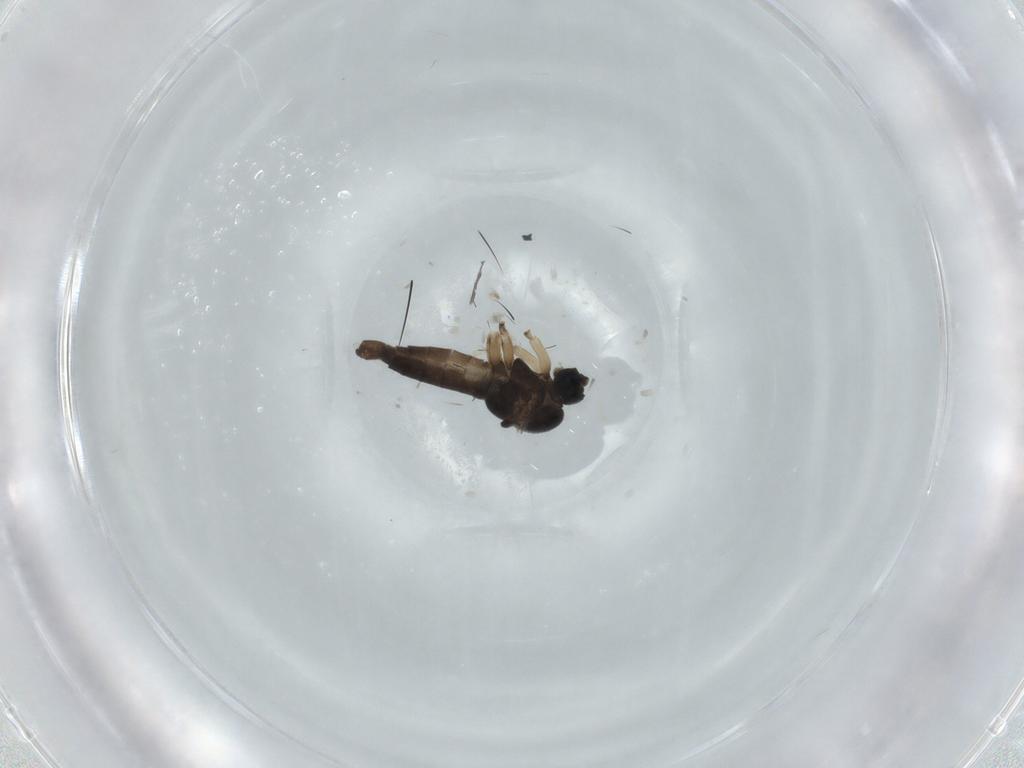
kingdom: Animalia
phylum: Arthropoda
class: Insecta
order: Diptera
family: Sciaridae
